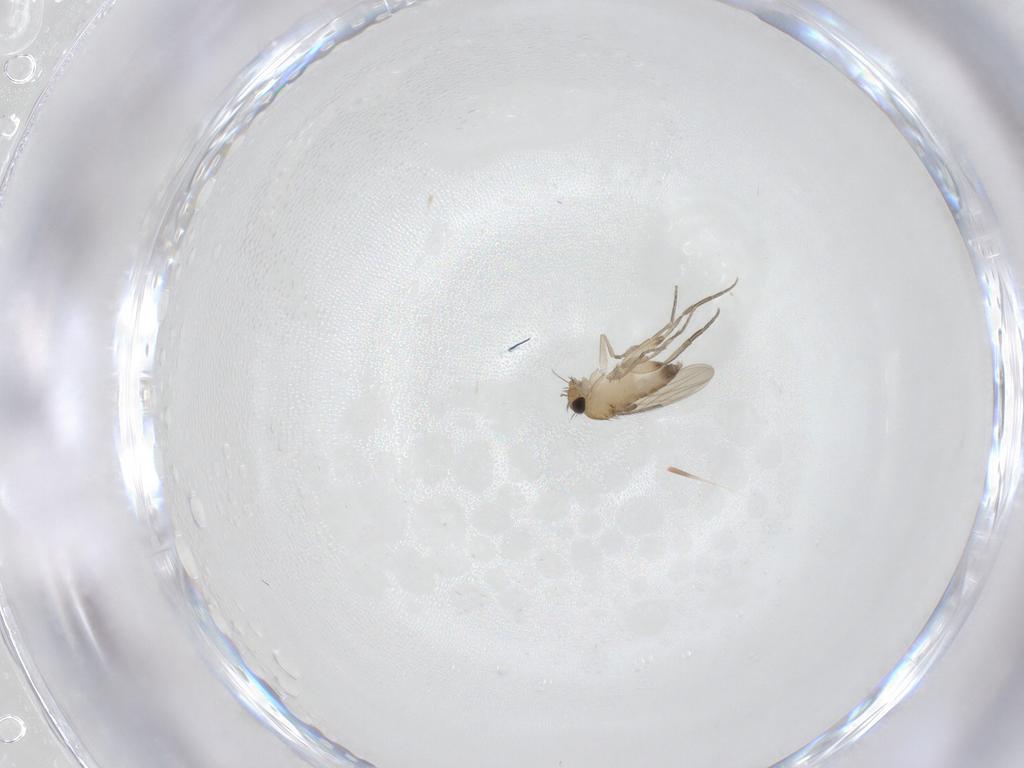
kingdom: Animalia
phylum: Arthropoda
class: Insecta
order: Diptera
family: Phoridae
